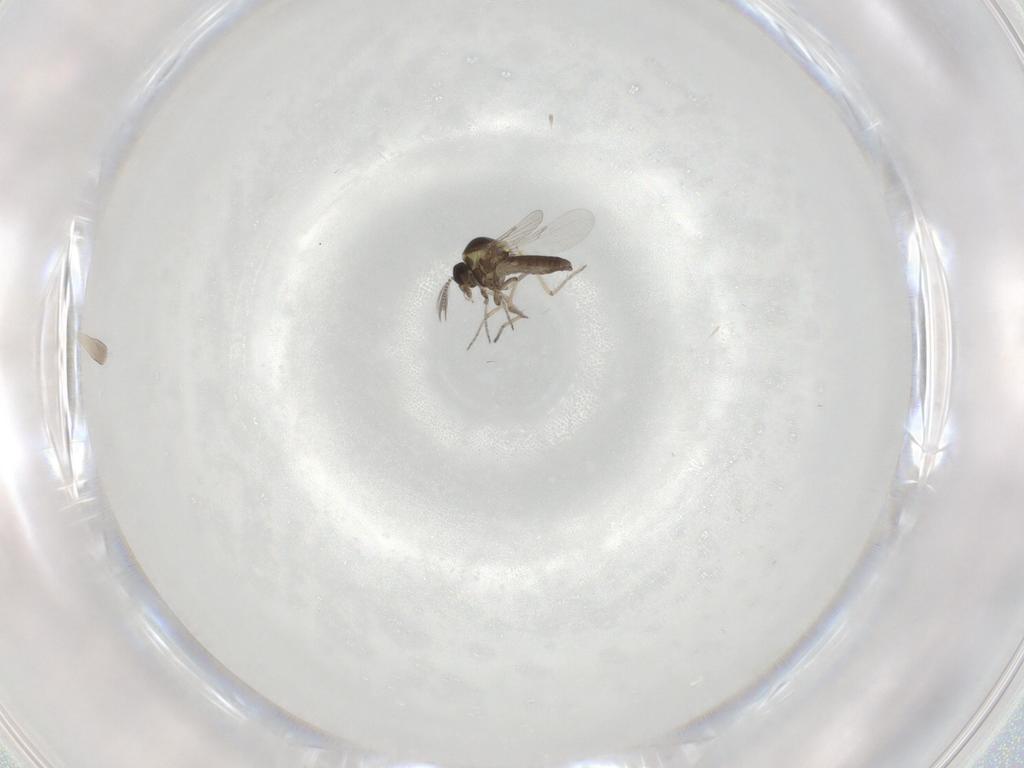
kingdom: Animalia
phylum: Arthropoda
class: Insecta
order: Diptera
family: Ceratopogonidae
